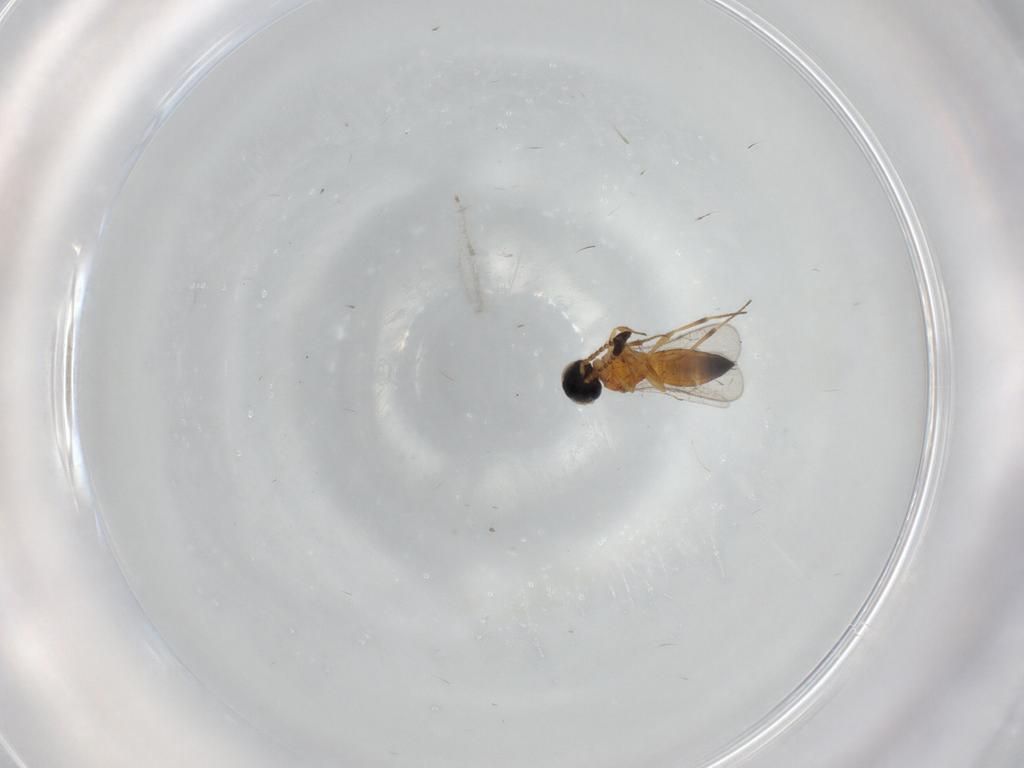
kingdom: Animalia
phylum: Arthropoda
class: Insecta
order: Hymenoptera
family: Scelionidae
